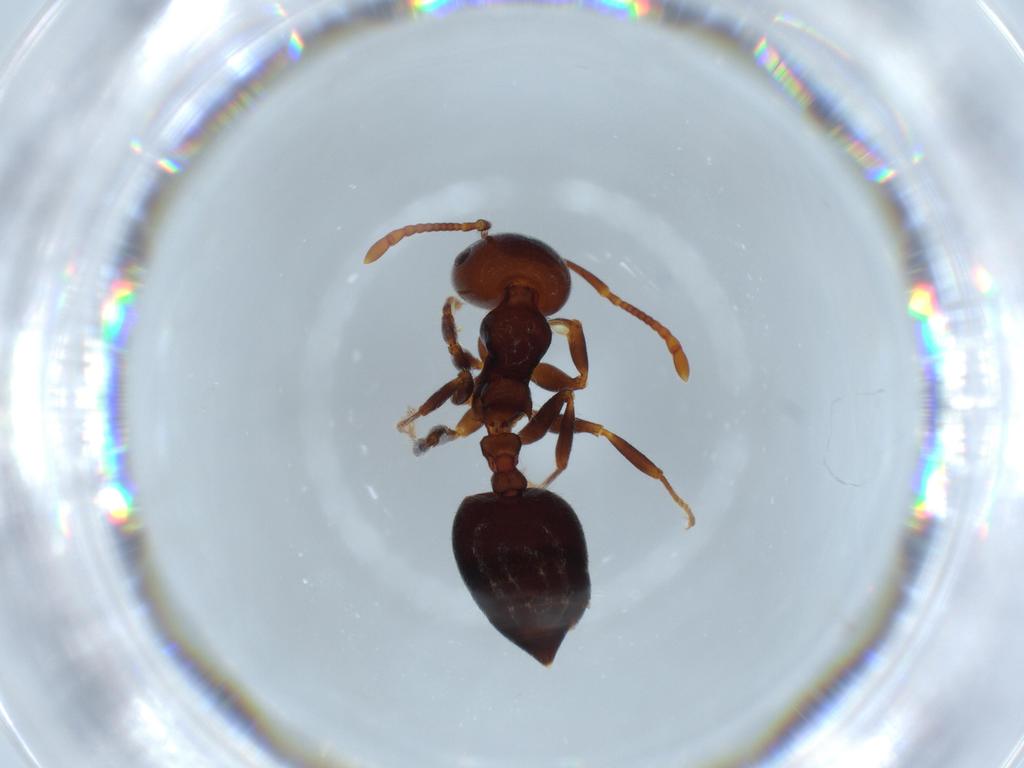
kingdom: Animalia
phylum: Arthropoda
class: Insecta
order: Hymenoptera
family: Formicidae
